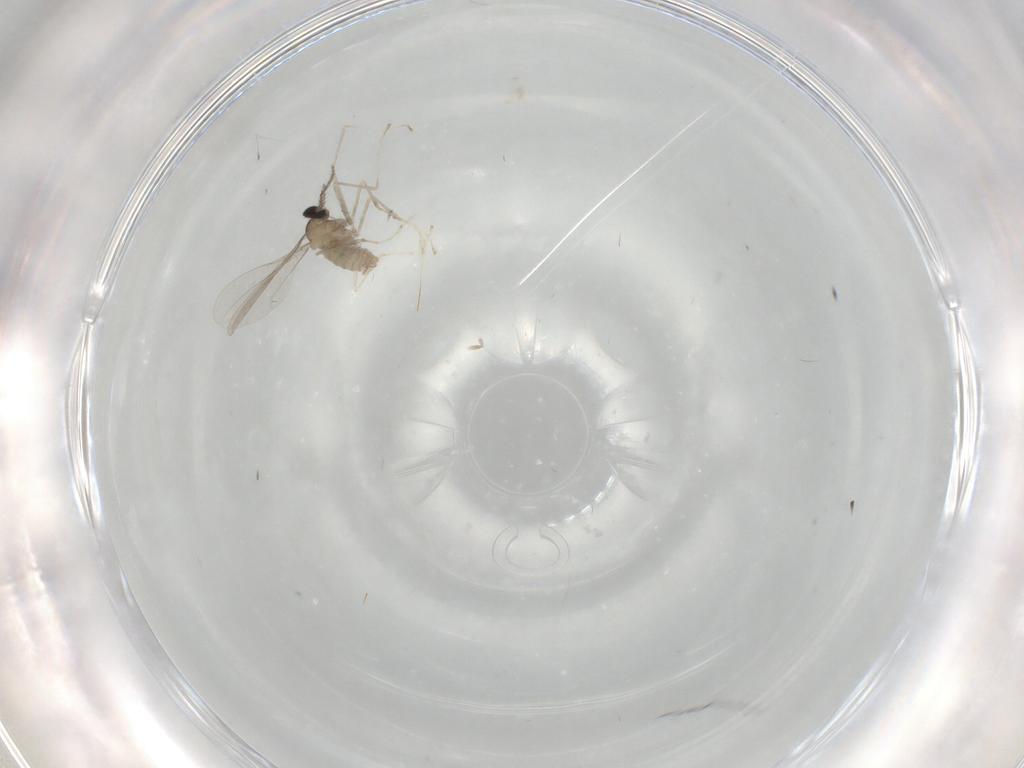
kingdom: Animalia
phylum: Arthropoda
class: Insecta
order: Diptera
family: Cecidomyiidae
